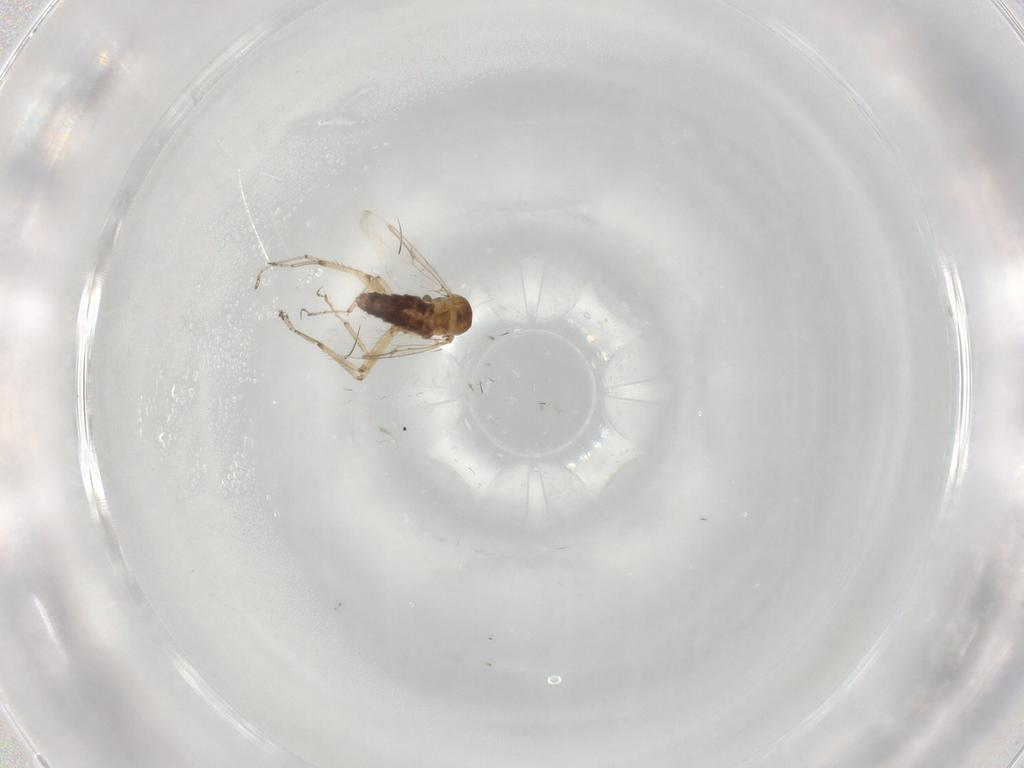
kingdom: Animalia
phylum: Arthropoda
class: Insecta
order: Diptera
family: Ceratopogonidae
